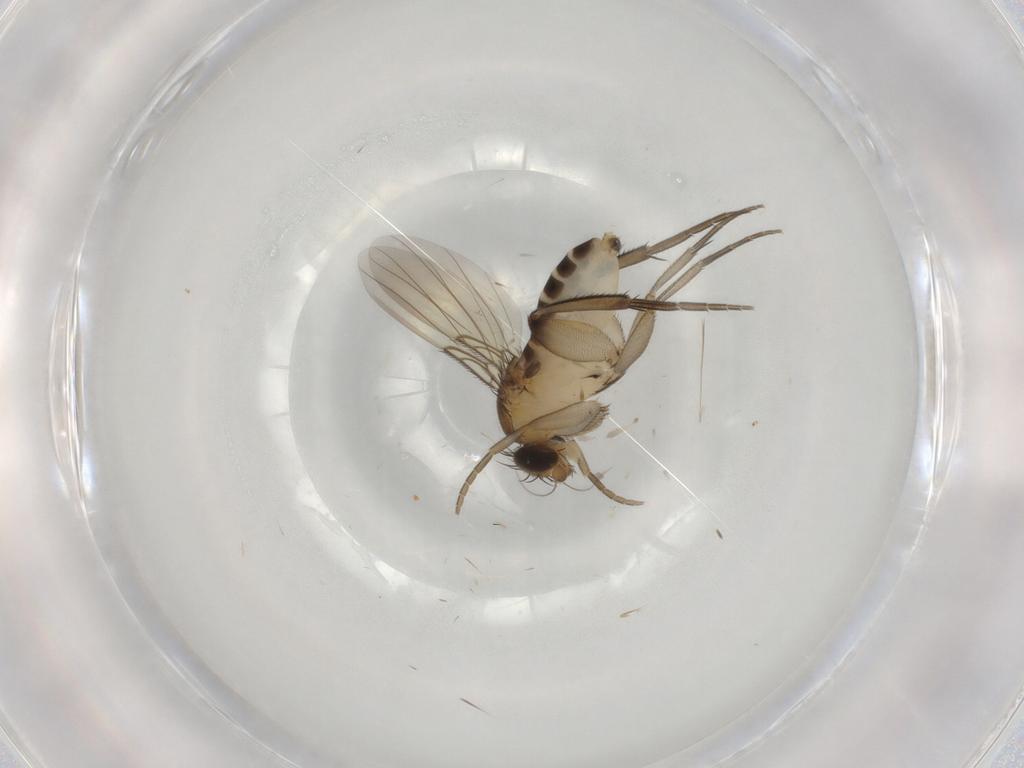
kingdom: Animalia
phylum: Arthropoda
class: Insecta
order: Diptera
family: Phoridae
